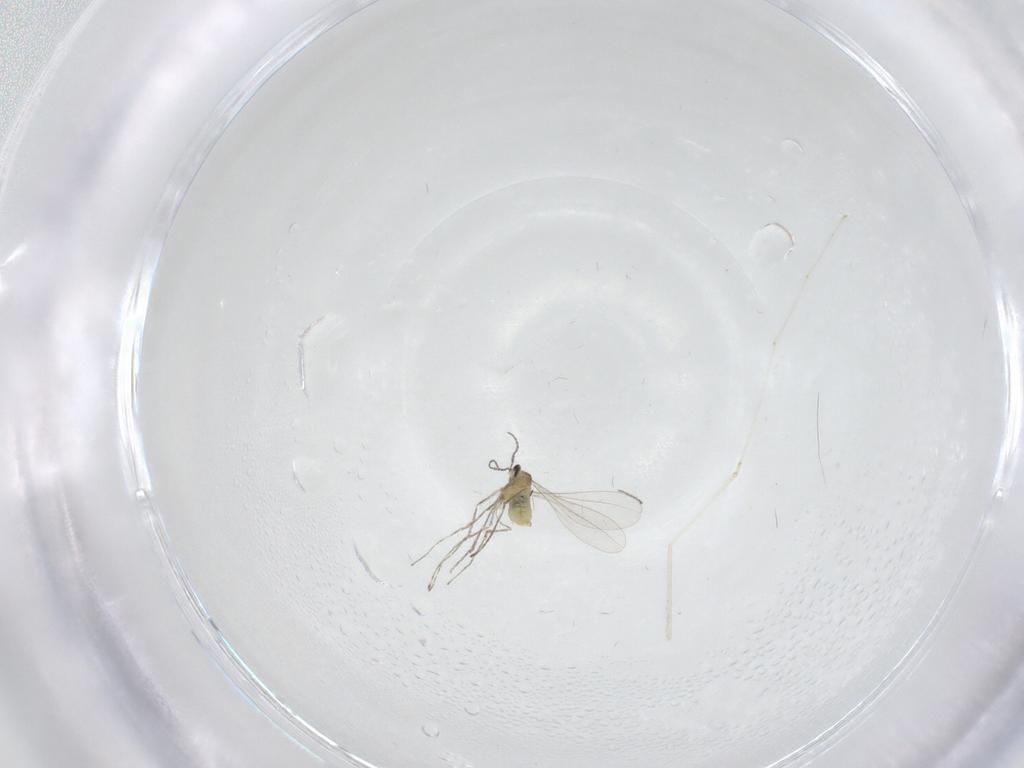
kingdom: Animalia
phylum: Arthropoda
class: Insecta
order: Diptera
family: Cecidomyiidae
